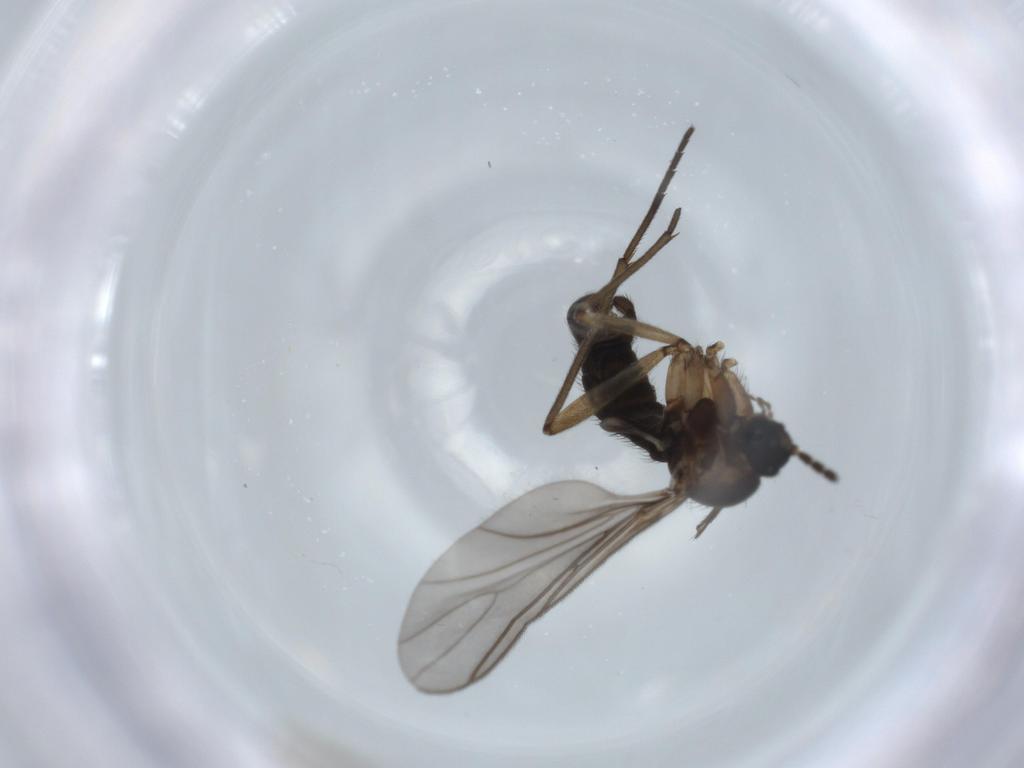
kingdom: Animalia
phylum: Arthropoda
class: Insecta
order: Diptera
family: Sciaridae
